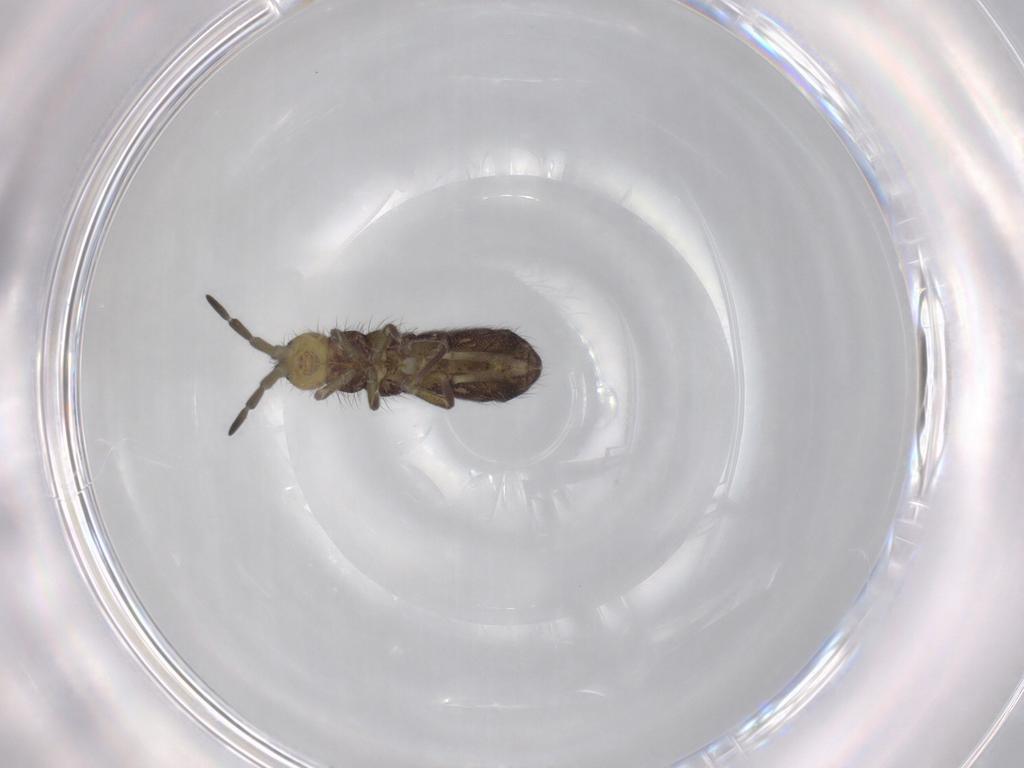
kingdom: Animalia
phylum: Arthropoda
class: Collembola
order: Entomobryomorpha
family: Isotomidae
